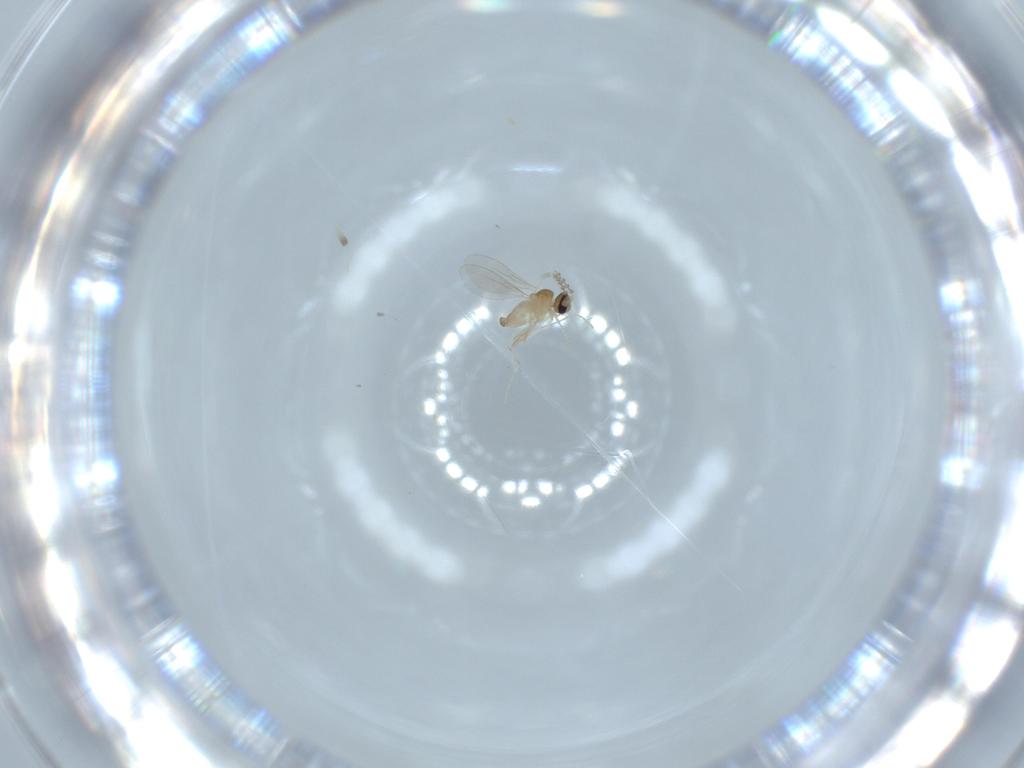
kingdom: Animalia
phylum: Arthropoda
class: Insecta
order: Diptera
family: Cecidomyiidae
